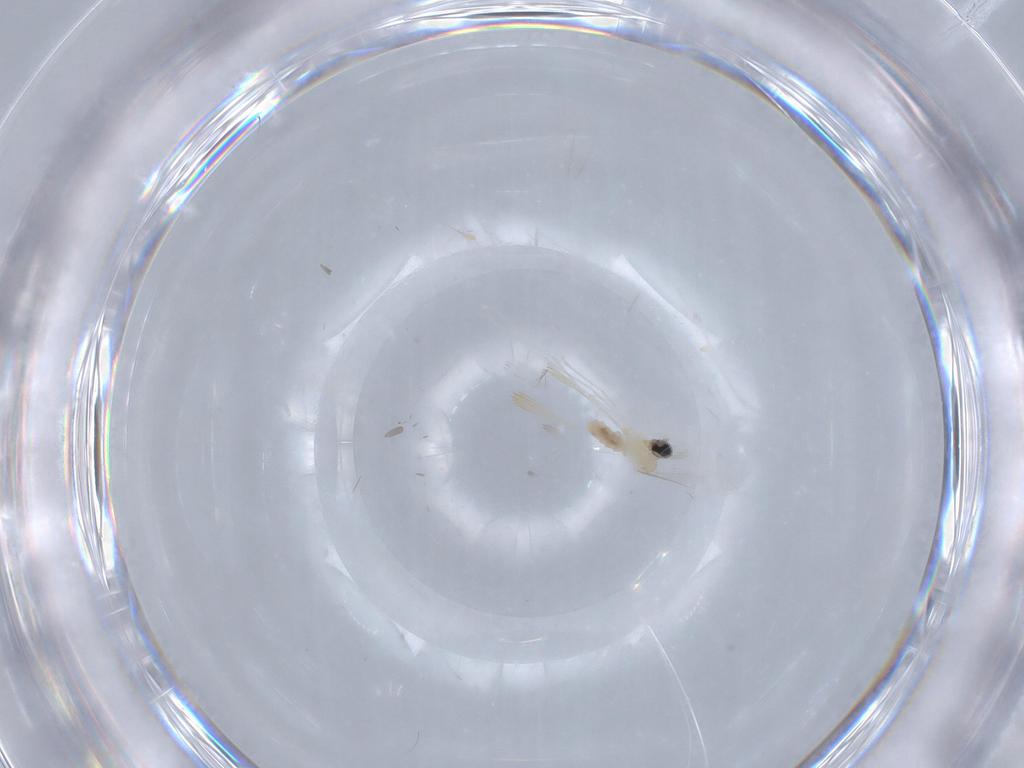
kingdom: Animalia
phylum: Arthropoda
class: Insecta
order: Diptera
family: Cecidomyiidae
